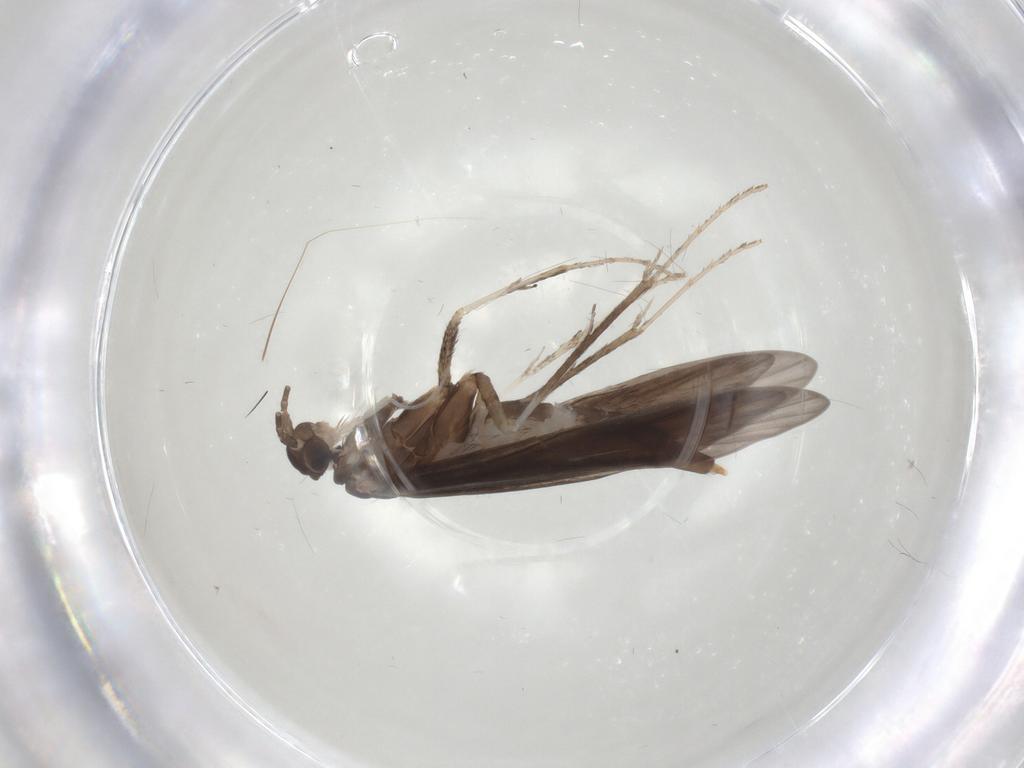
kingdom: Animalia
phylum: Arthropoda
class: Insecta
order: Trichoptera
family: Xiphocentronidae
